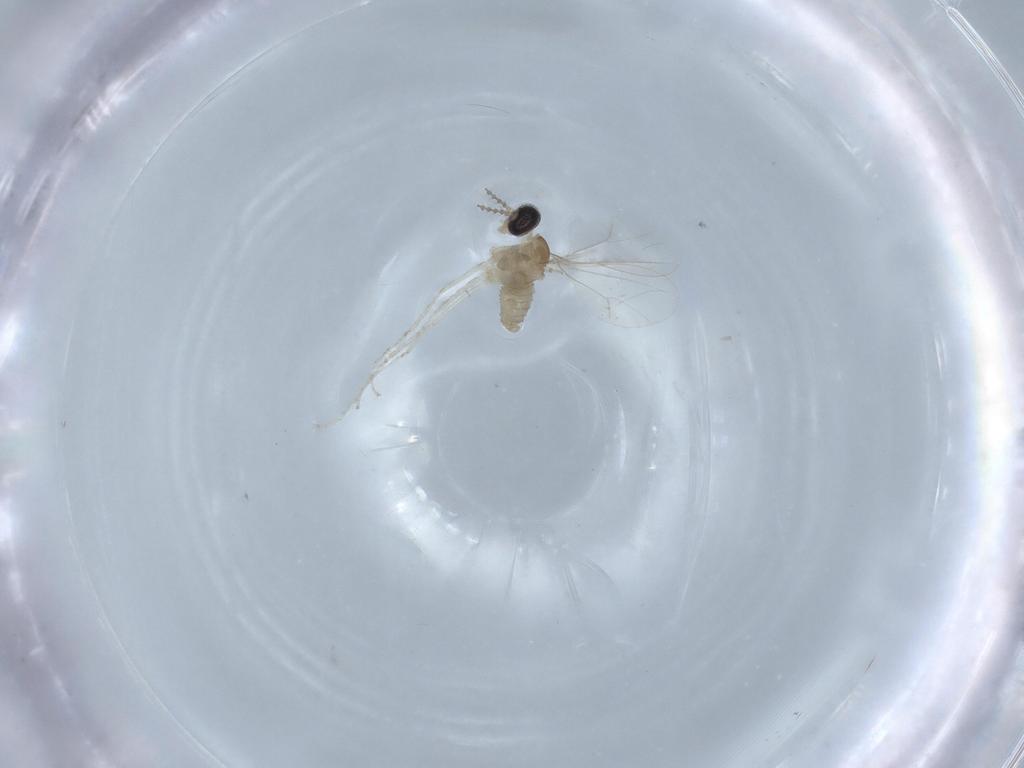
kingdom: Animalia
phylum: Arthropoda
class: Insecta
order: Diptera
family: Chironomidae
